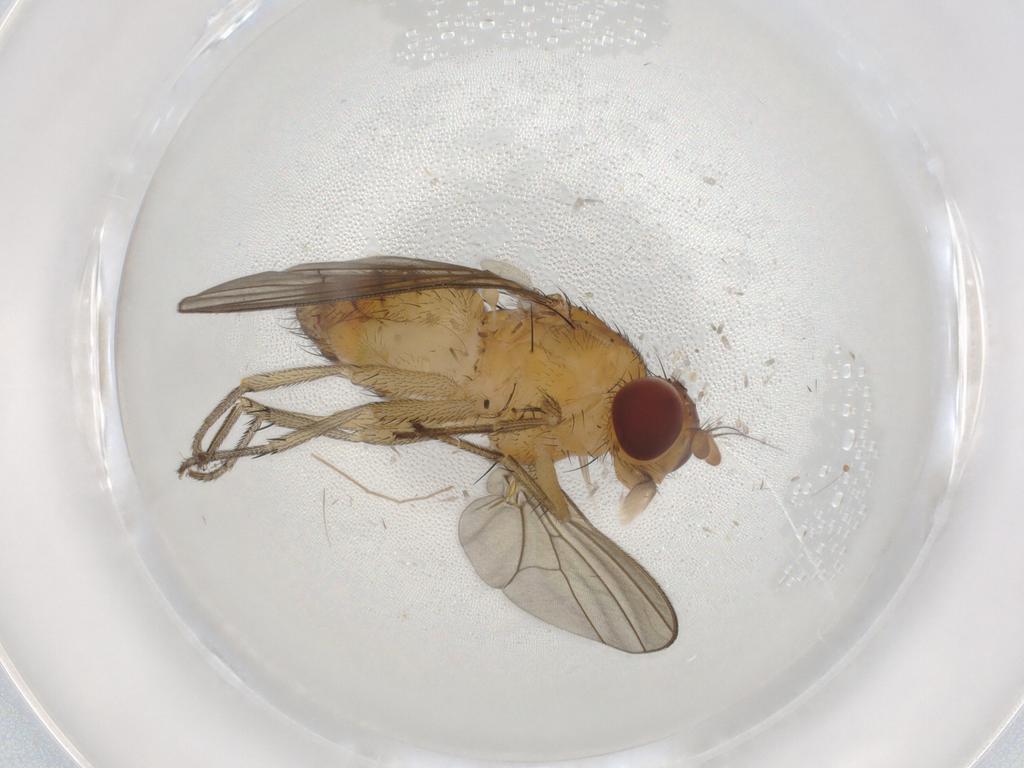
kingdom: Animalia
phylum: Arthropoda
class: Insecta
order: Diptera
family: Chironomidae
